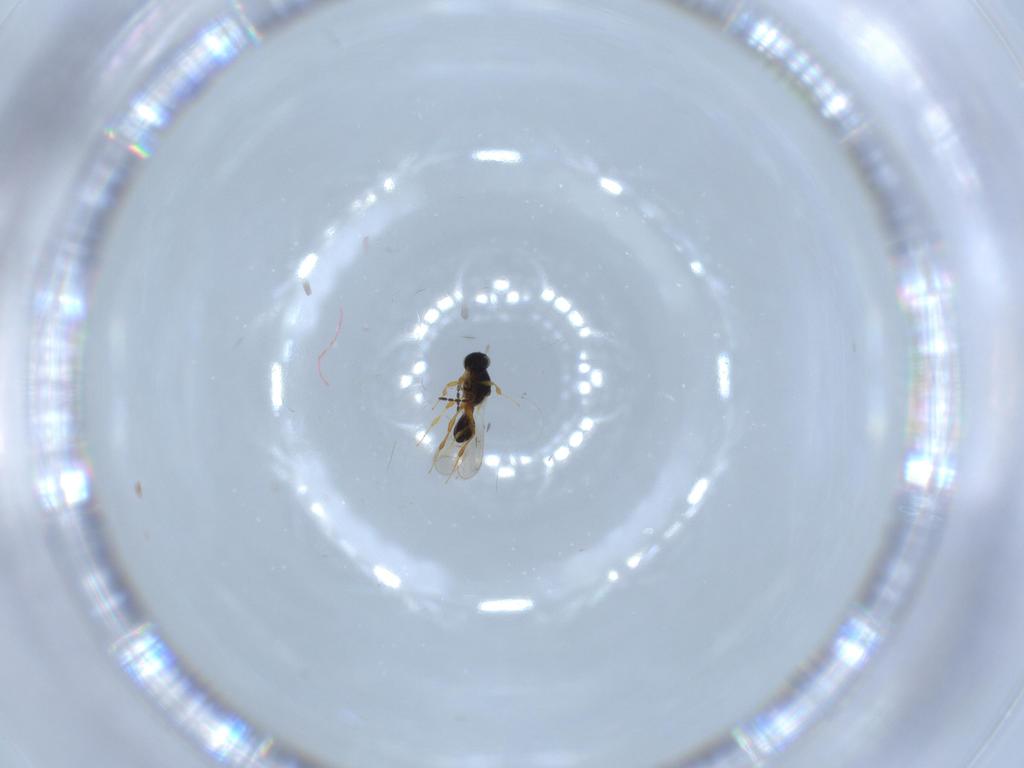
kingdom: Animalia
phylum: Arthropoda
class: Insecta
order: Hymenoptera
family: Platygastridae
